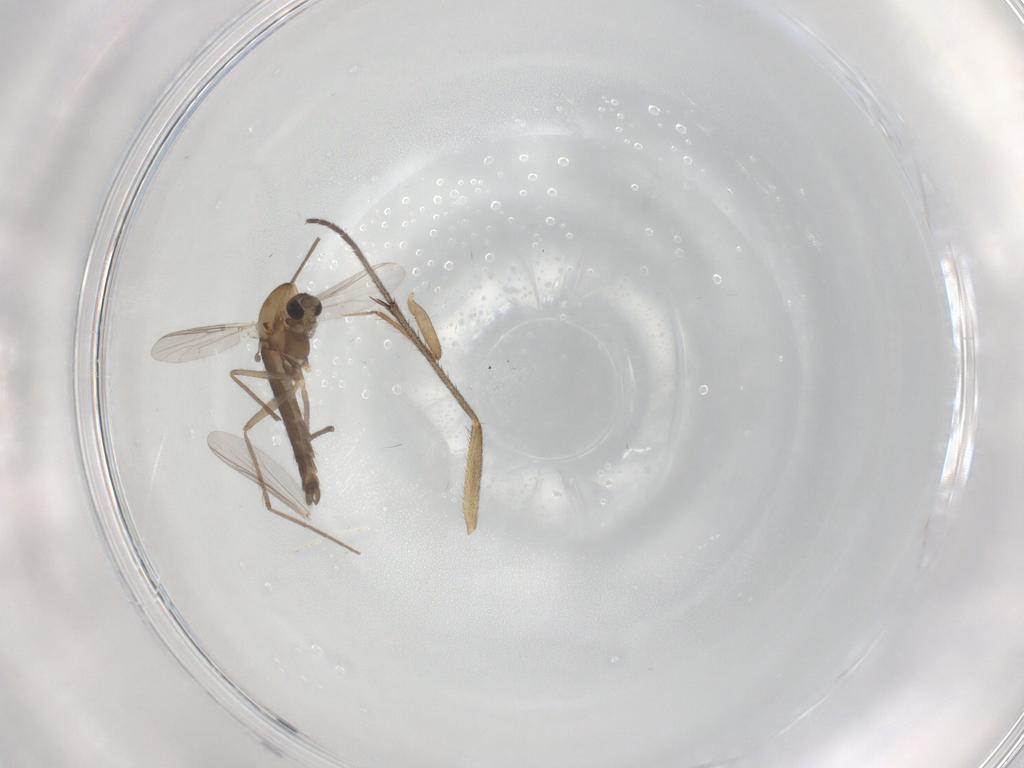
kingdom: Animalia
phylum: Arthropoda
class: Insecta
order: Diptera
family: Chironomidae
